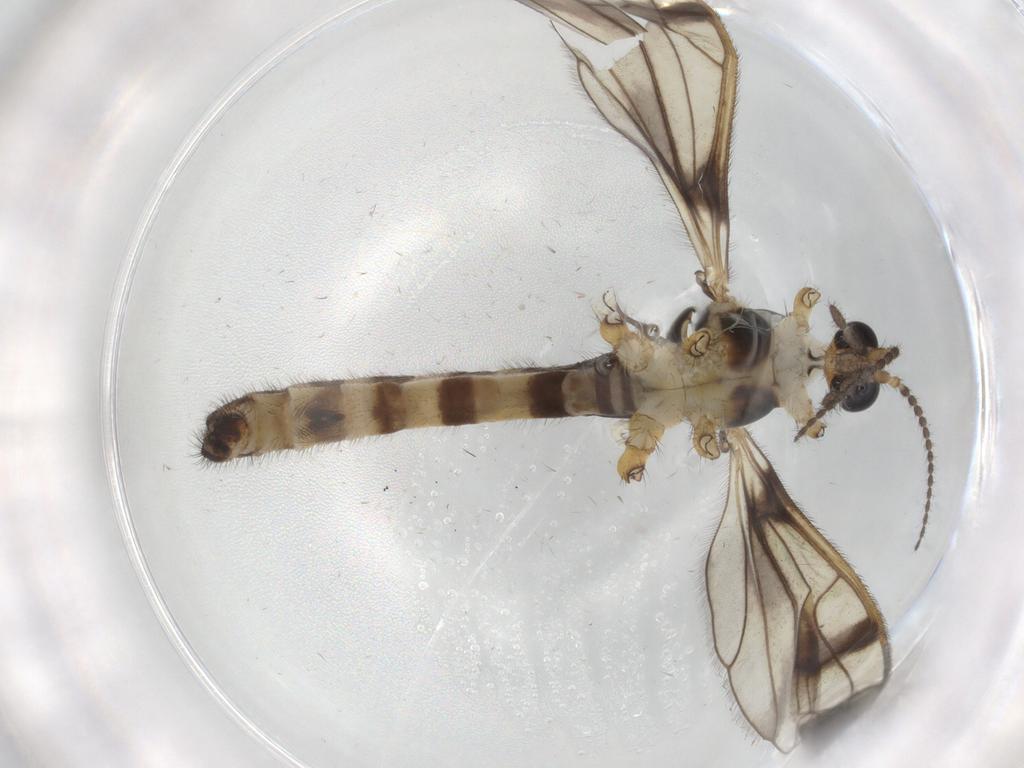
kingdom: Animalia
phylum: Arthropoda
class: Insecta
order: Diptera
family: Limoniidae
